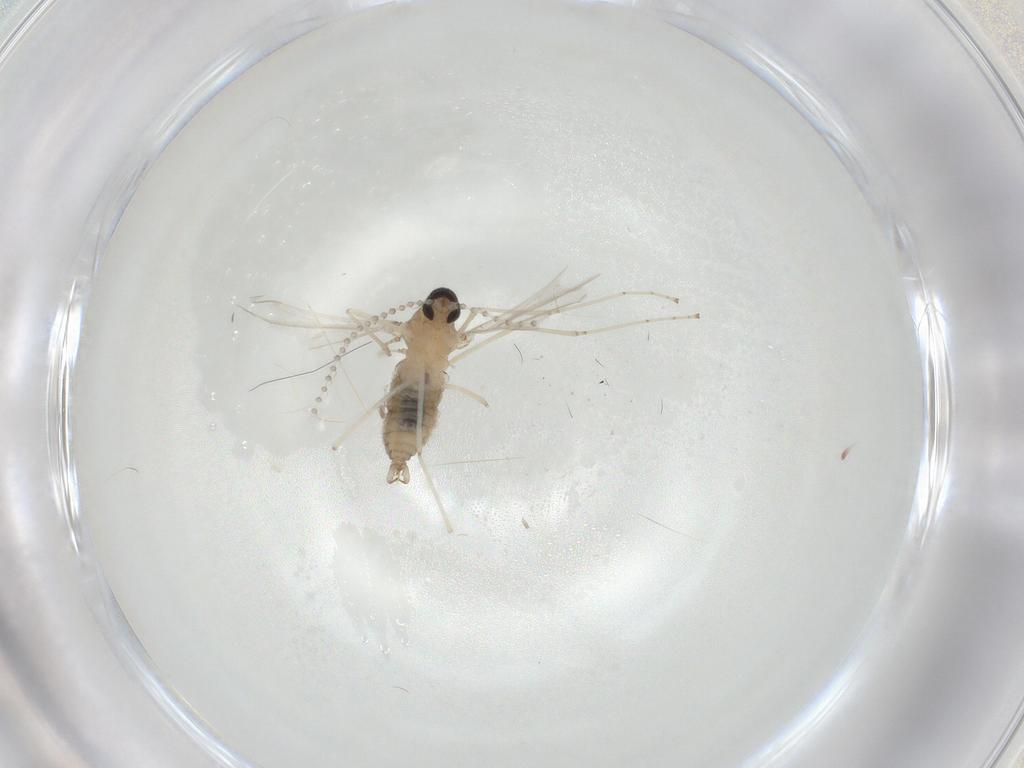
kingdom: Animalia
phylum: Arthropoda
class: Insecta
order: Diptera
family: Cecidomyiidae
